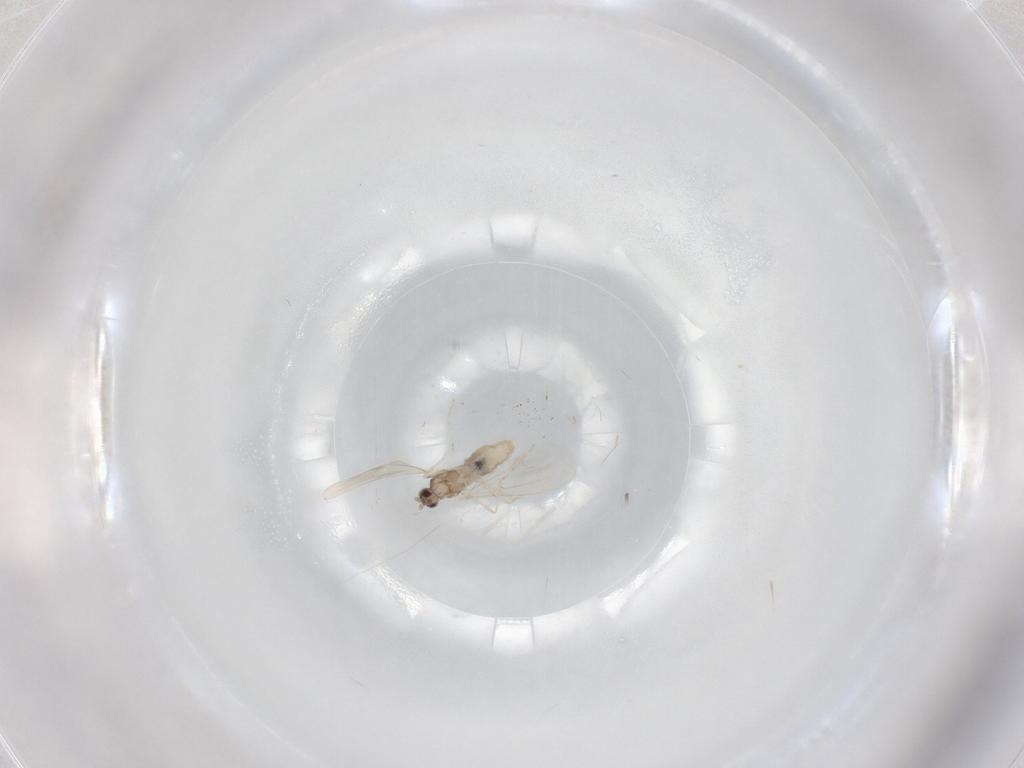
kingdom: Animalia
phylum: Arthropoda
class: Insecta
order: Diptera
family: Cecidomyiidae
